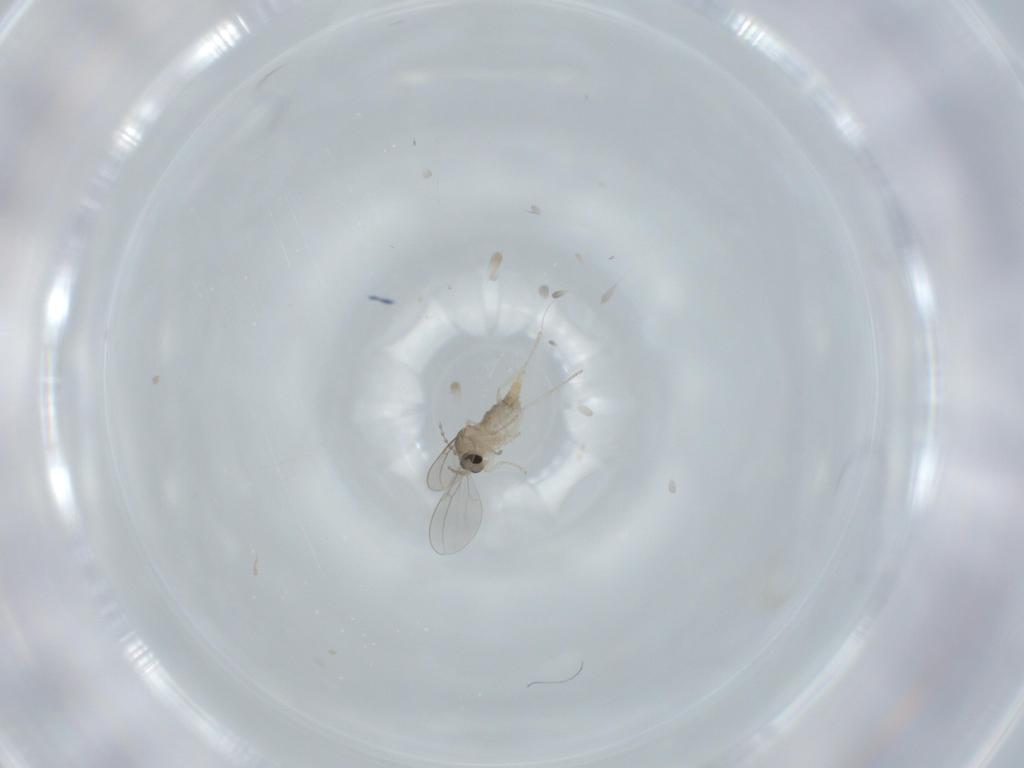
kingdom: Animalia
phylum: Arthropoda
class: Insecta
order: Diptera
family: Cecidomyiidae
